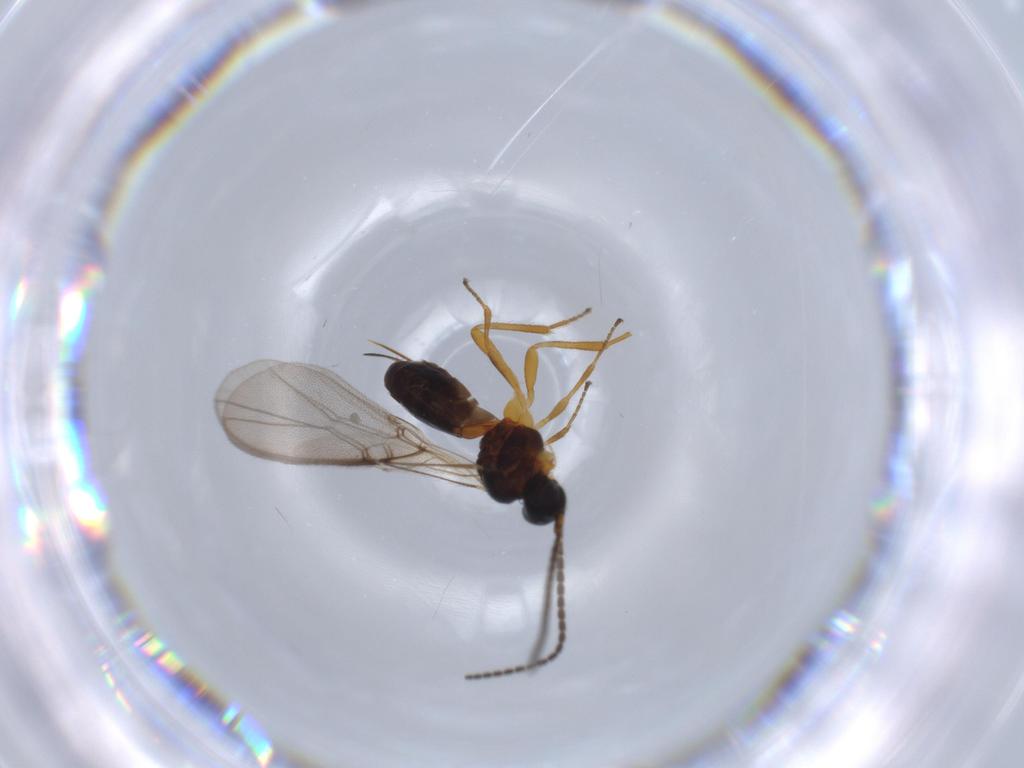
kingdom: Animalia
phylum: Arthropoda
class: Insecta
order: Hymenoptera
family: Braconidae
